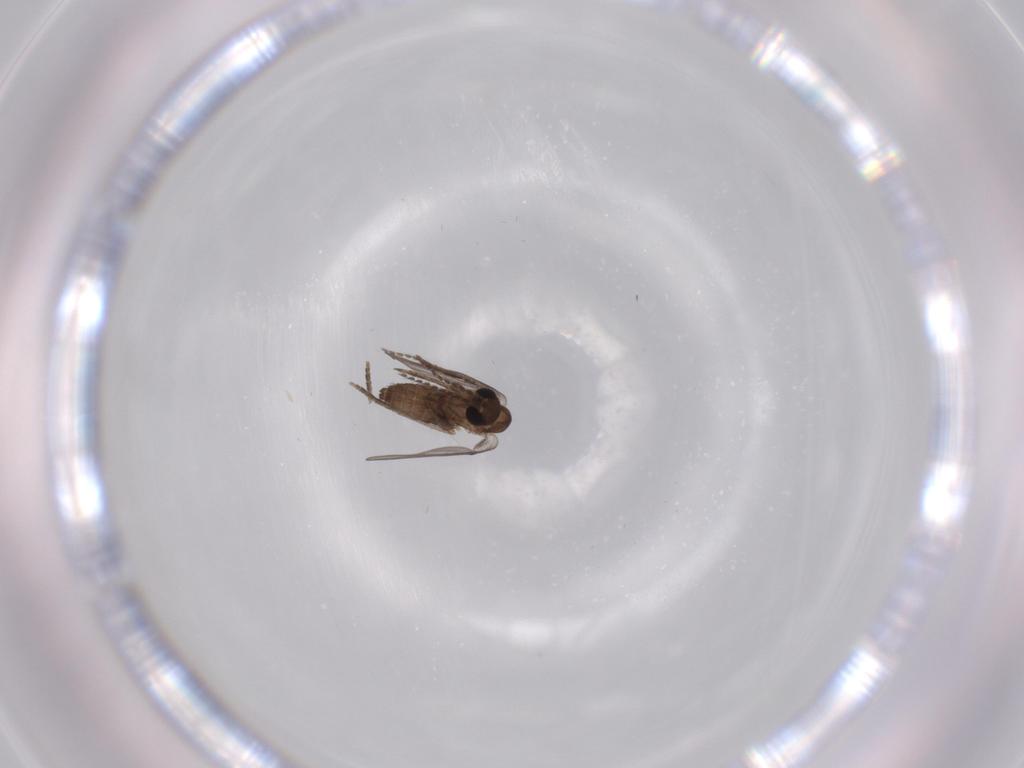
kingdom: Animalia
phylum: Arthropoda
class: Insecta
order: Diptera
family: Psychodidae
